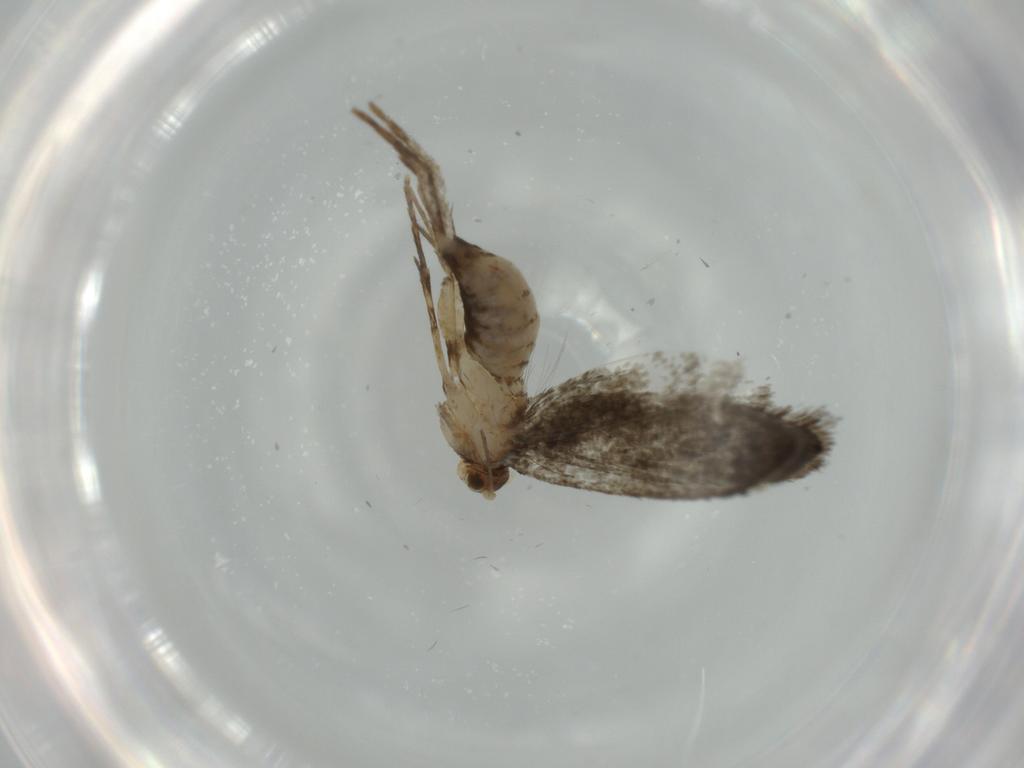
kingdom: Animalia
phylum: Arthropoda
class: Insecta
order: Lepidoptera
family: Tineidae
